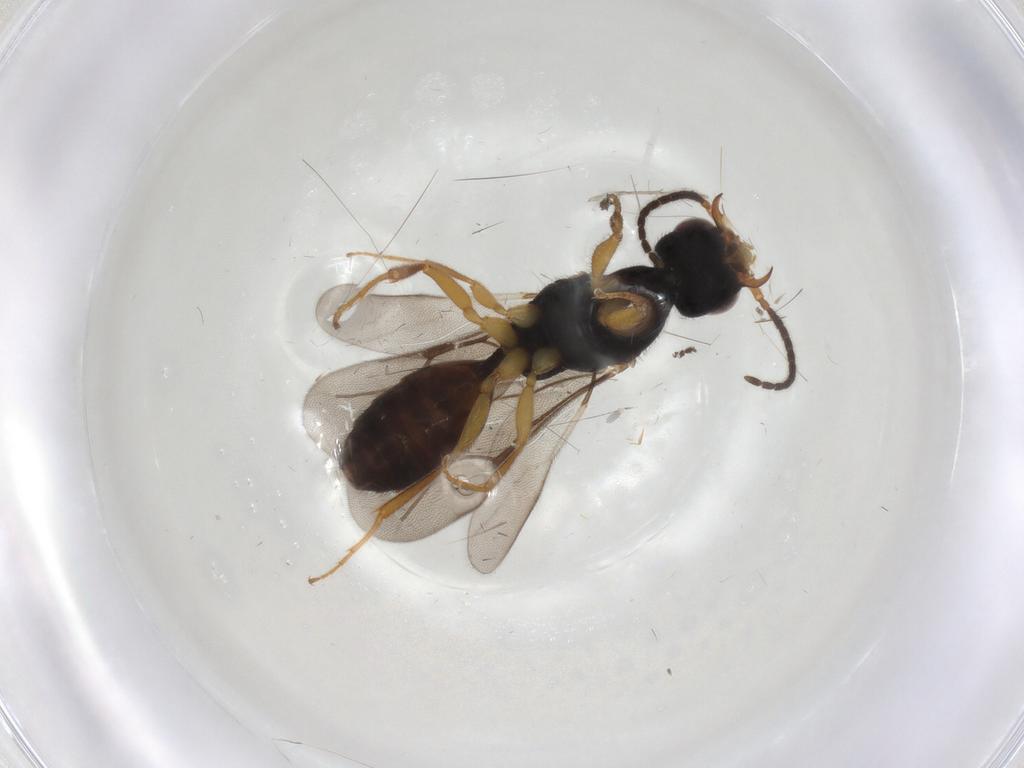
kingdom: Animalia
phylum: Arthropoda
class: Insecta
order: Hymenoptera
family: Bethylidae
